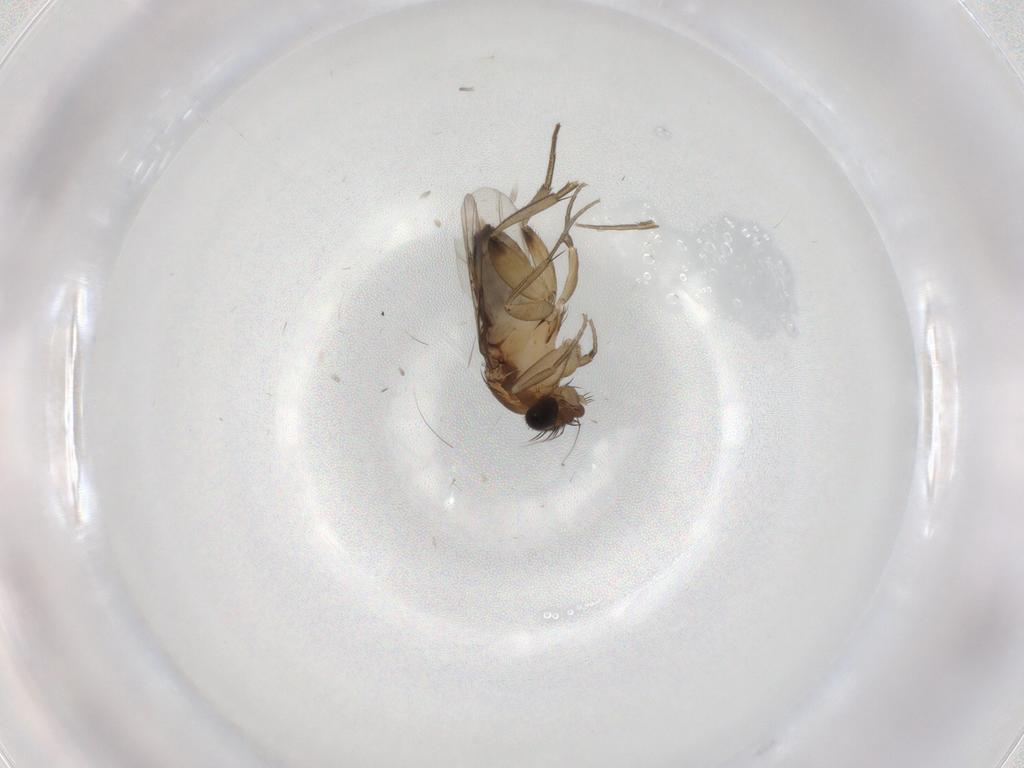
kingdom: Animalia
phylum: Arthropoda
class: Insecta
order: Diptera
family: Phoridae
